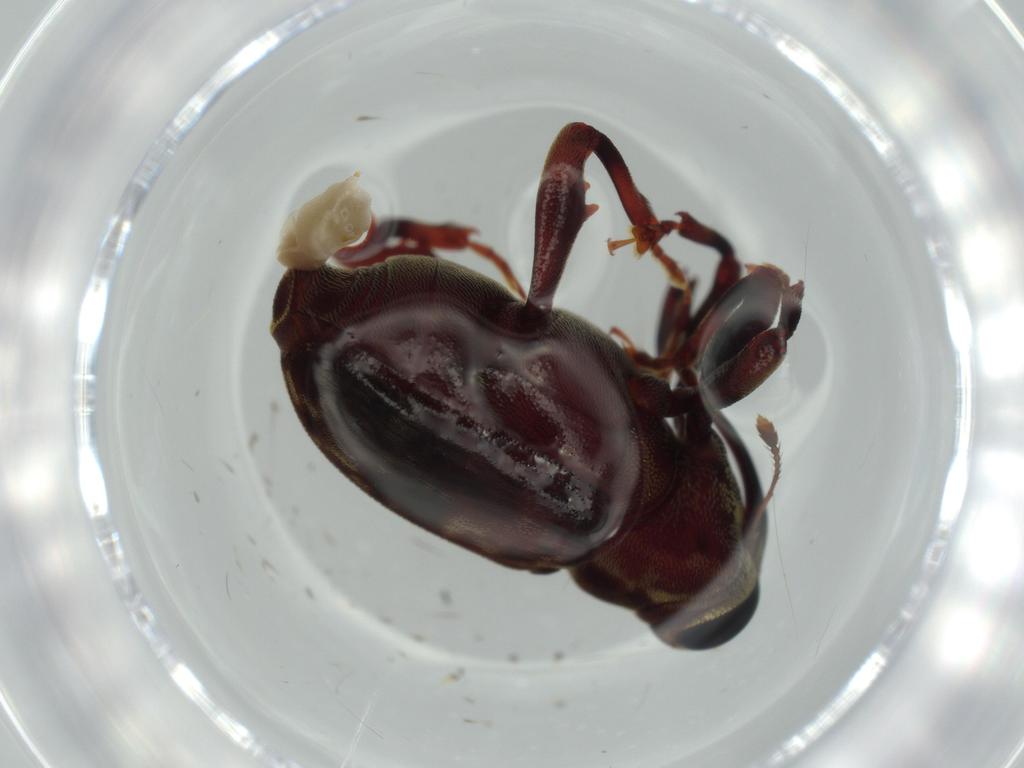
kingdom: Animalia
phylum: Arthropoda
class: Insecta
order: Coleoptera
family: Curculionidae
